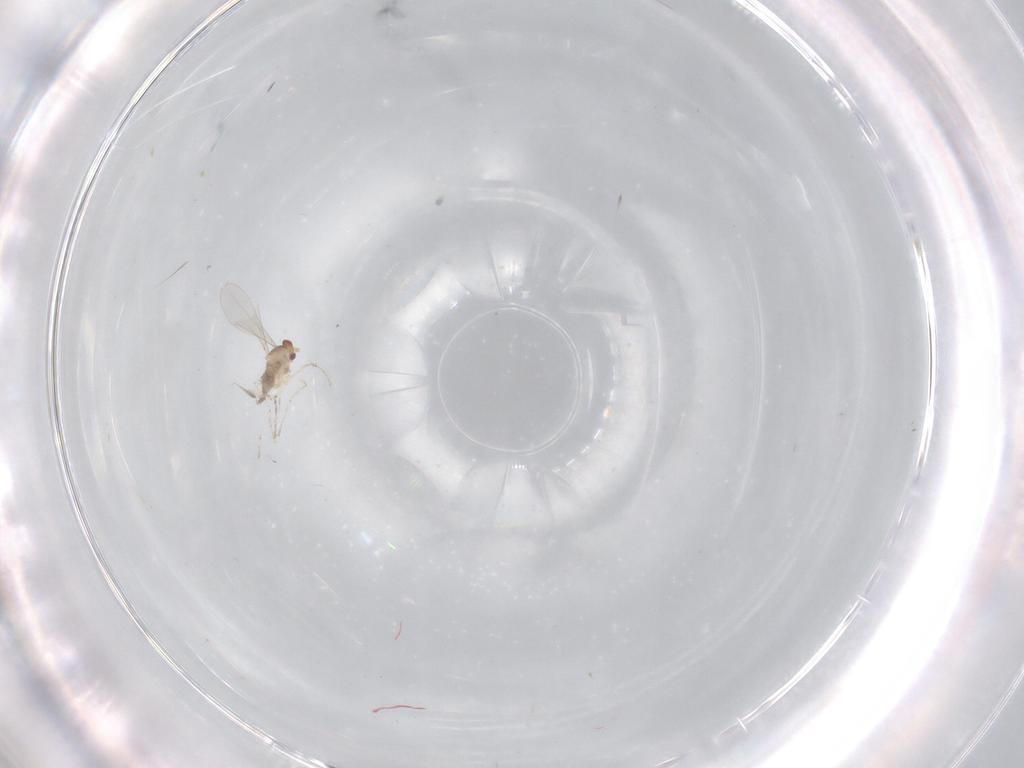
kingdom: Animalia
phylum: Arthropoda
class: Insecta
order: Diptera
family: Cecidomyiidae
